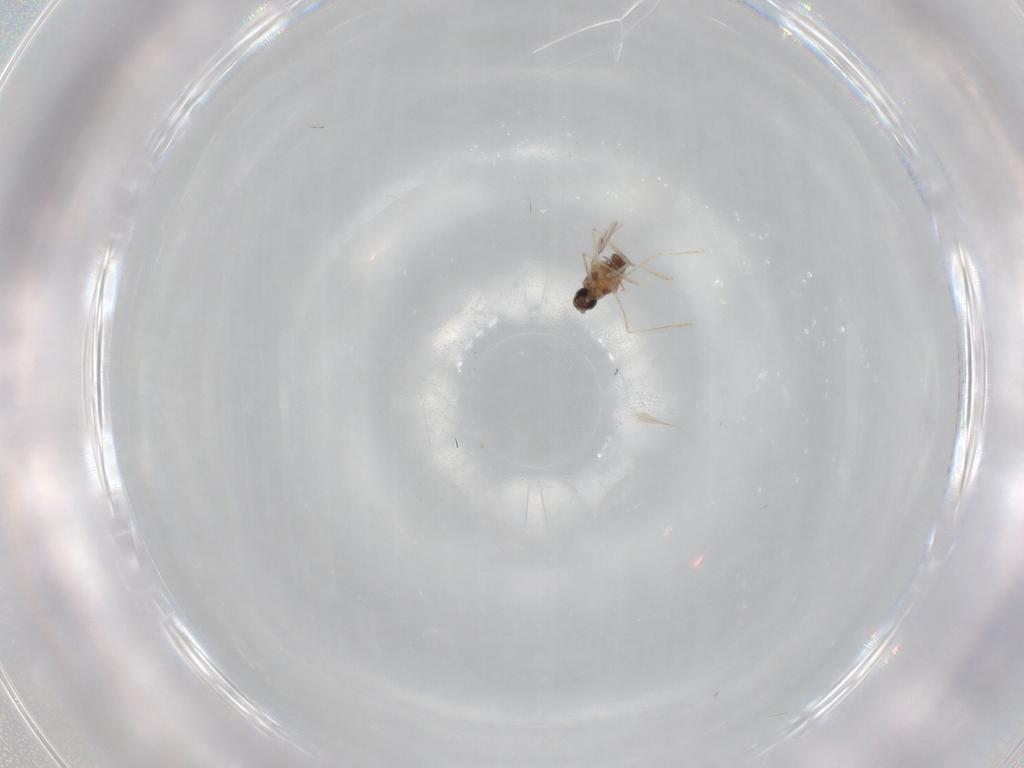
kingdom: Animalia
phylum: Arthropoda
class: Insecta
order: Diptera
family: Cecidomyiidae
